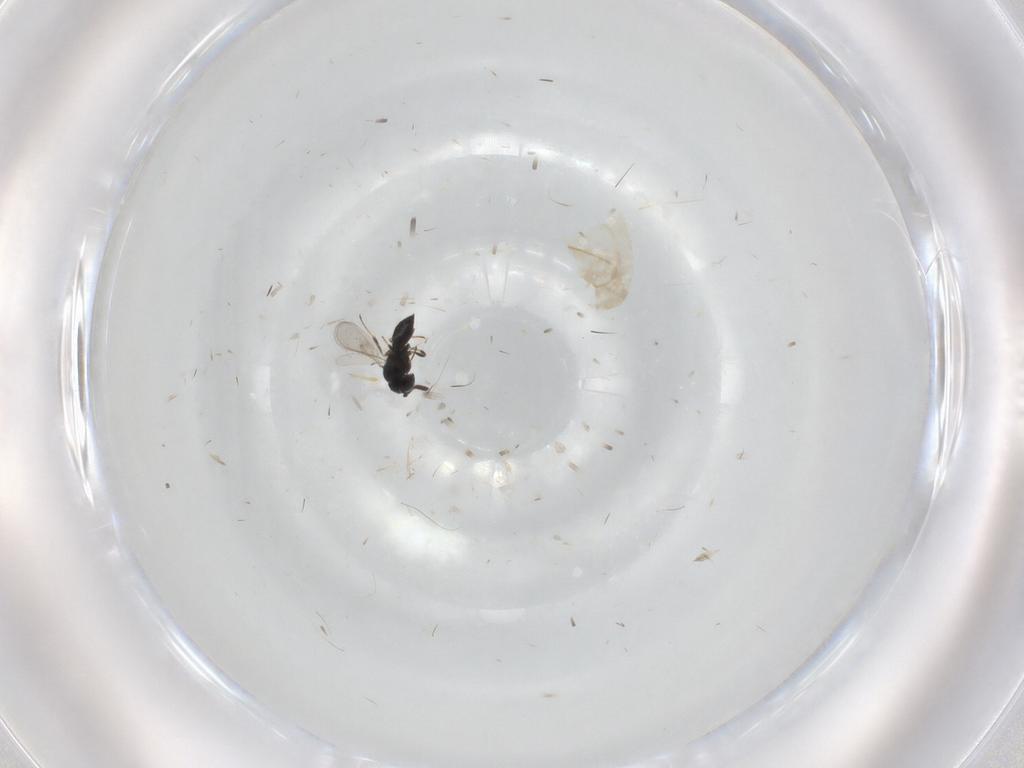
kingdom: Animalia
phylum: Arthropoda
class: Insecta
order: Hymenoptera
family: Scelionidae
